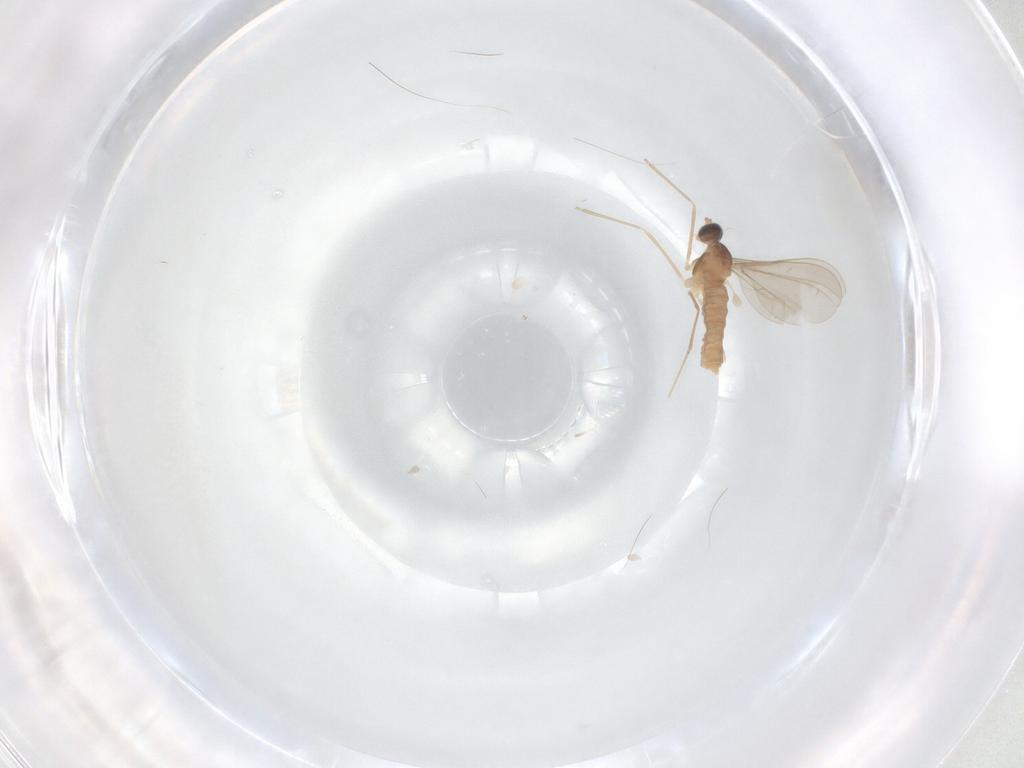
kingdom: Animalia
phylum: Arthropoda
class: Insecta
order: Diptera
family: Cecidomyiidae
